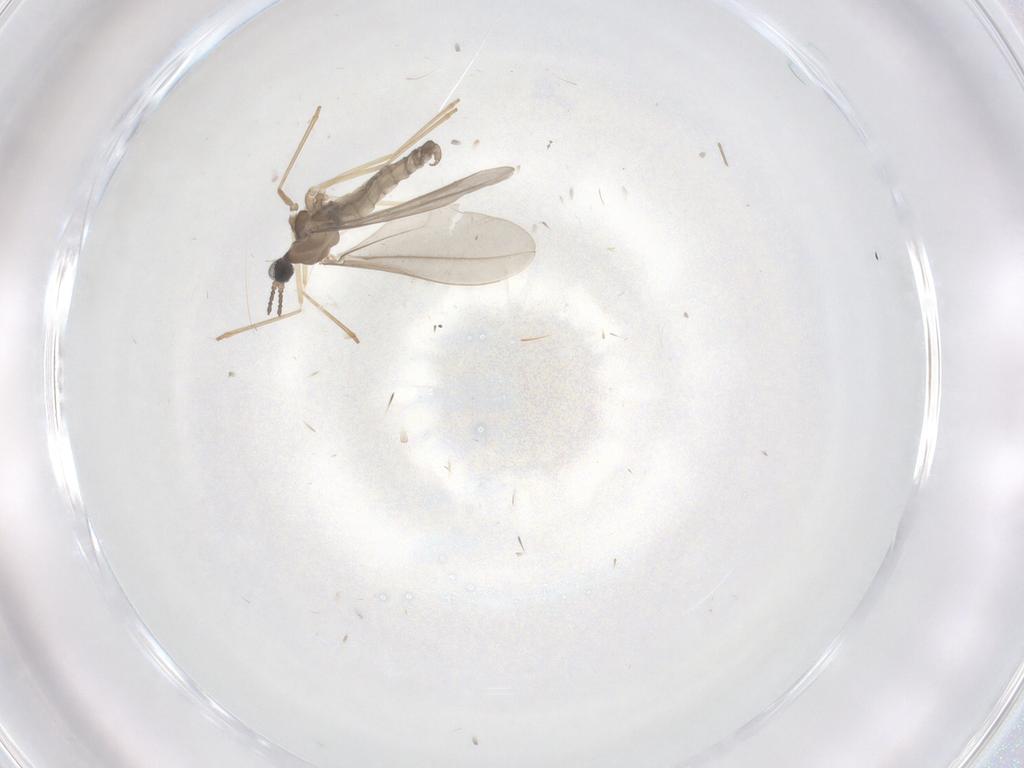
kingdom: Animalia
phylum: Arthropoda
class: Insecta
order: Diptera
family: Cecidomyiidae
